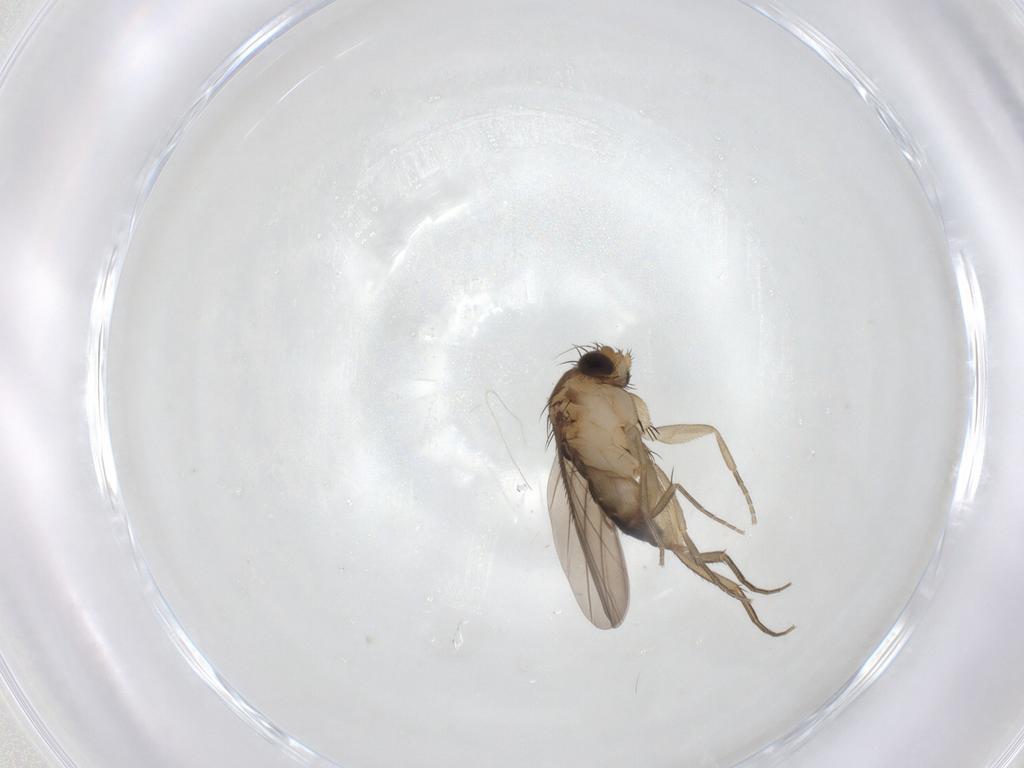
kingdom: Animalia
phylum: Arthropoda
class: Insecta
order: Diptera
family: Phoridae
